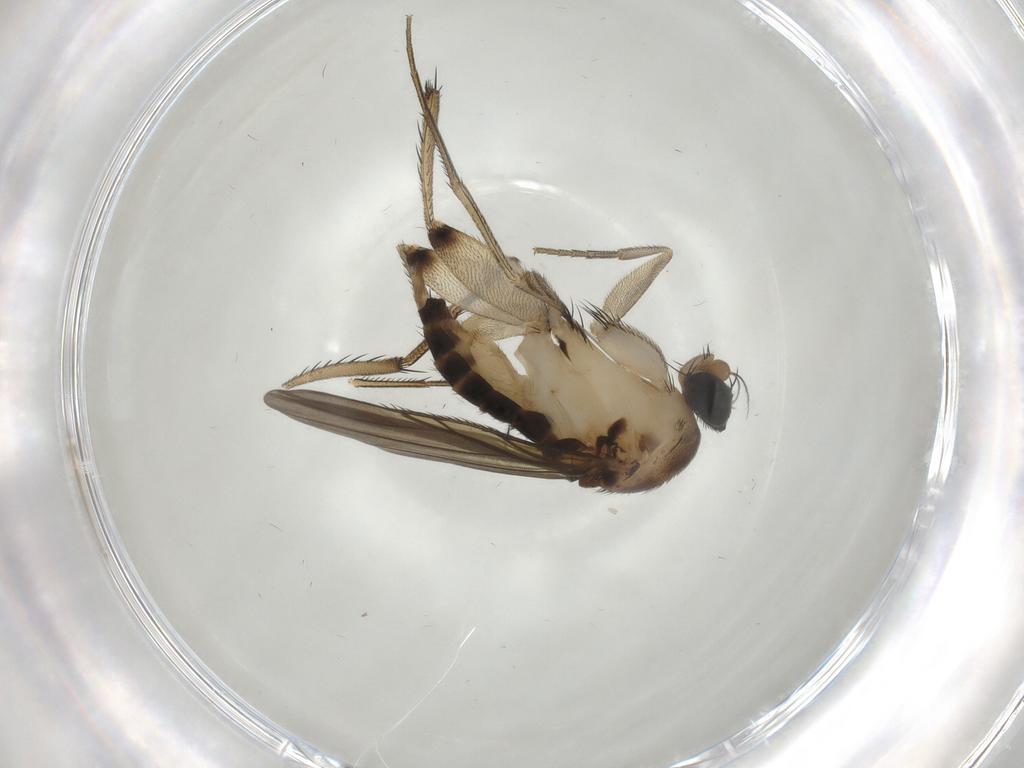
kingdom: Animalia
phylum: Arthropoda
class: Insecta
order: Diptera
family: Phoridae
